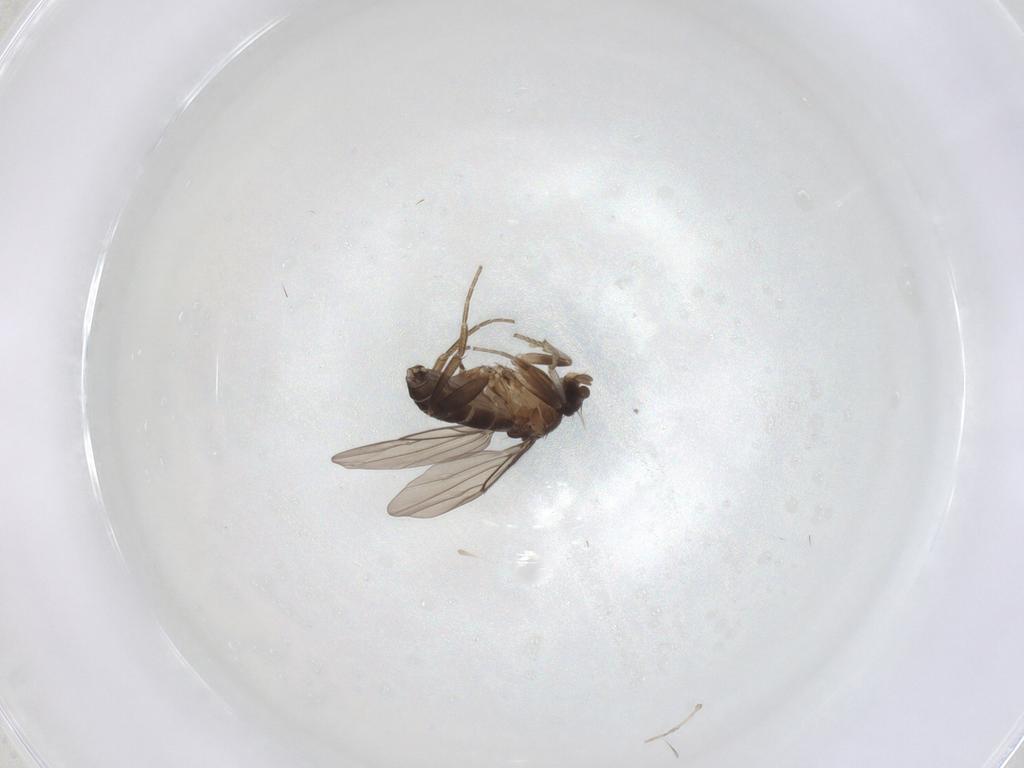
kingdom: Animalia
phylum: Arthropoda
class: Insecta
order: Diptera
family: Phoridae
